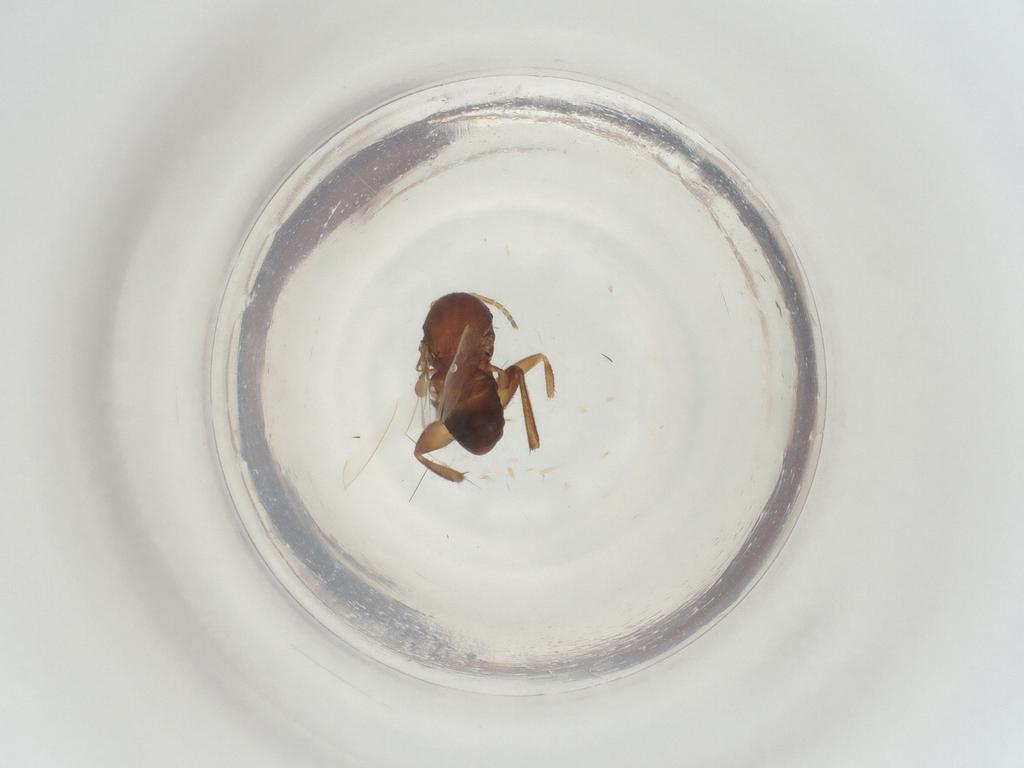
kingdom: Animalia
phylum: Arthropoda
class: Insecta
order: Diptera
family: Phoridae
